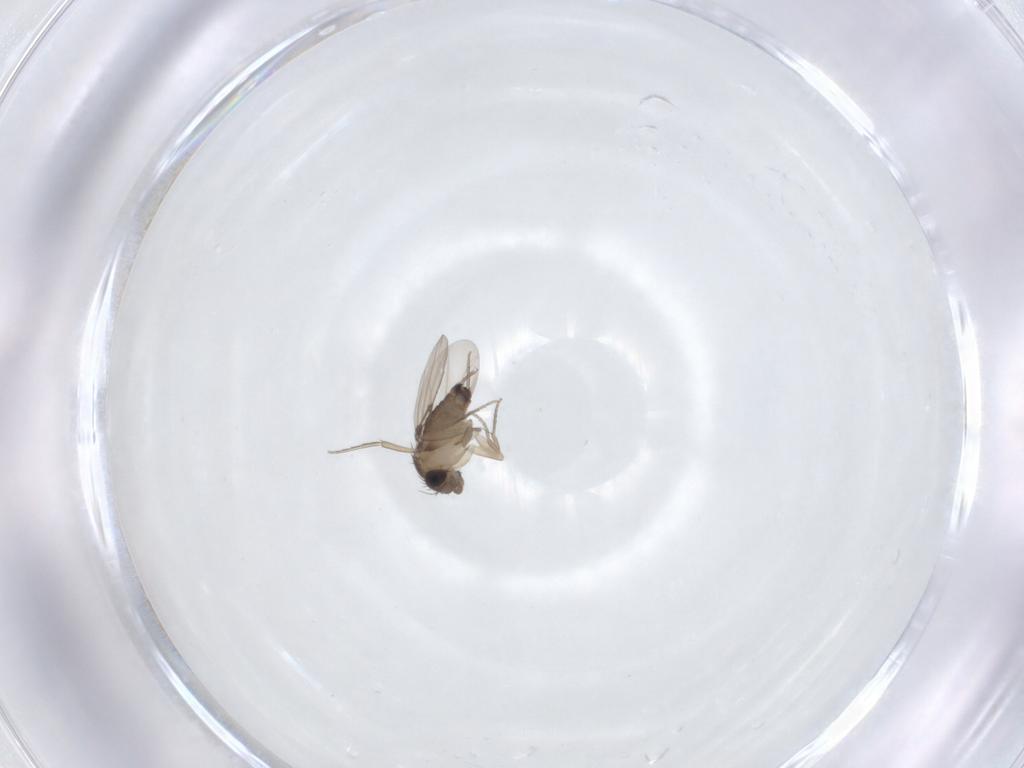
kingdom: Animalia
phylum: Arthropoda
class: Insecta
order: Diptera
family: Phoridae
